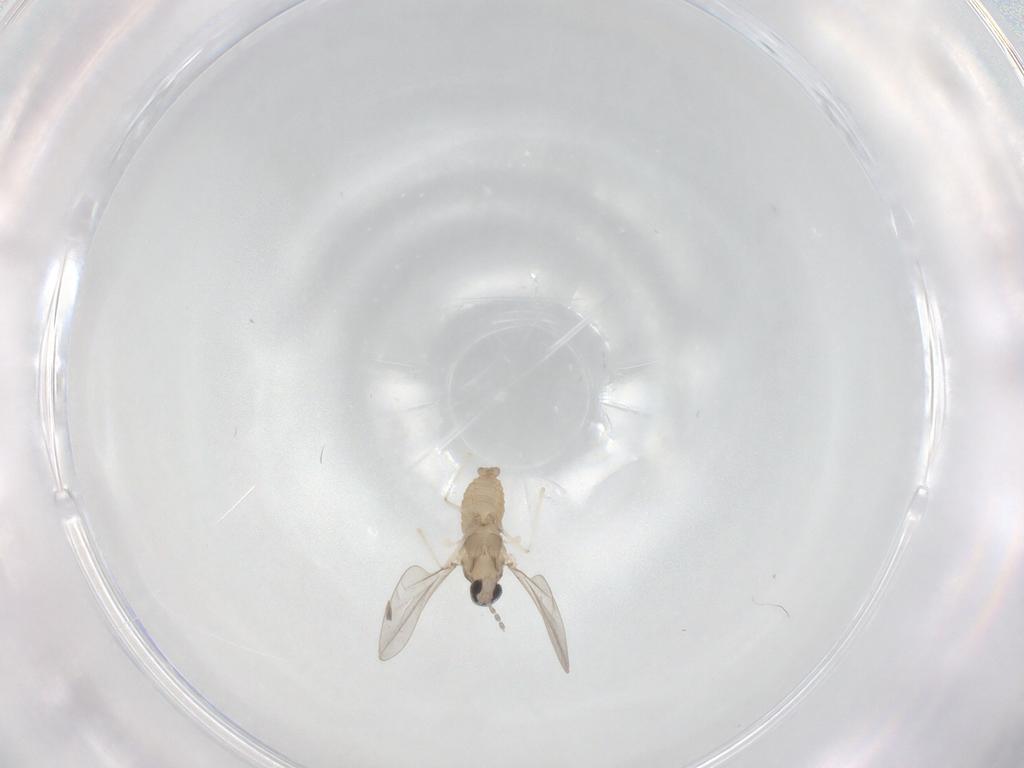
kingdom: Animalia
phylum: Arthropoda
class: Insecta
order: Diptera
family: Cecidomyiidae
